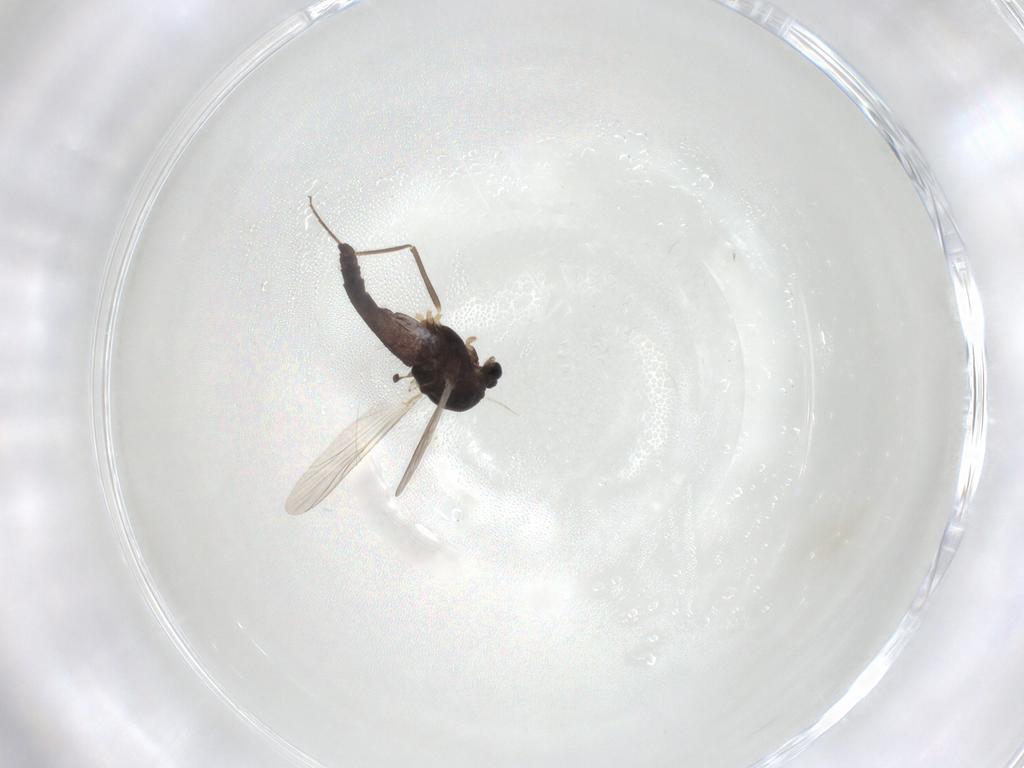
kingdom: Animalia
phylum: Arthropoda
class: Insecta
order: Diptera
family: Chironomidae
